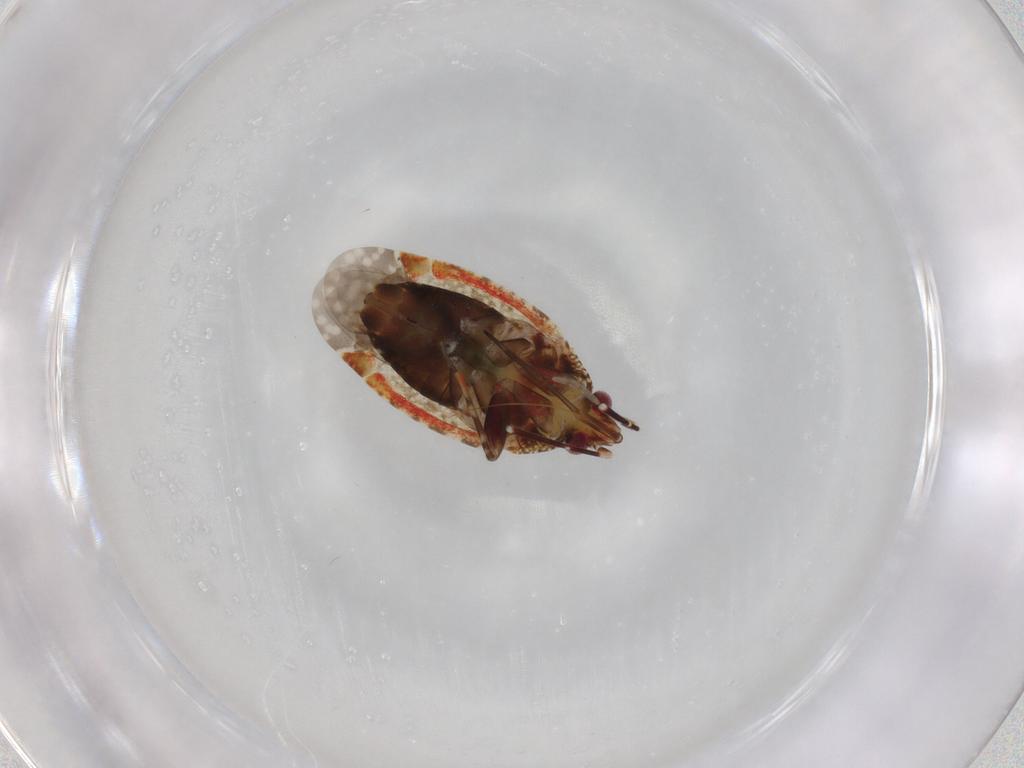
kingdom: Animalia
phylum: Arthropoda
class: Insecta
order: Hemiptera
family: Miridae
